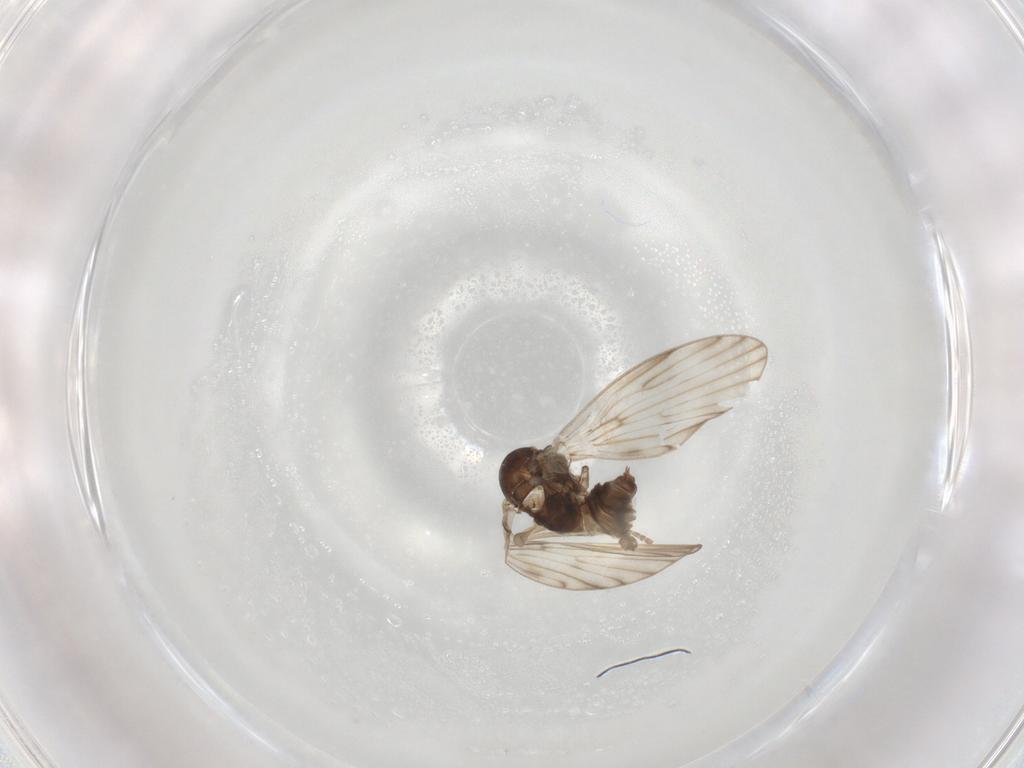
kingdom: Animalia
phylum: Arthropoda
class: Insecta
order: Diptera
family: Psychodidae
